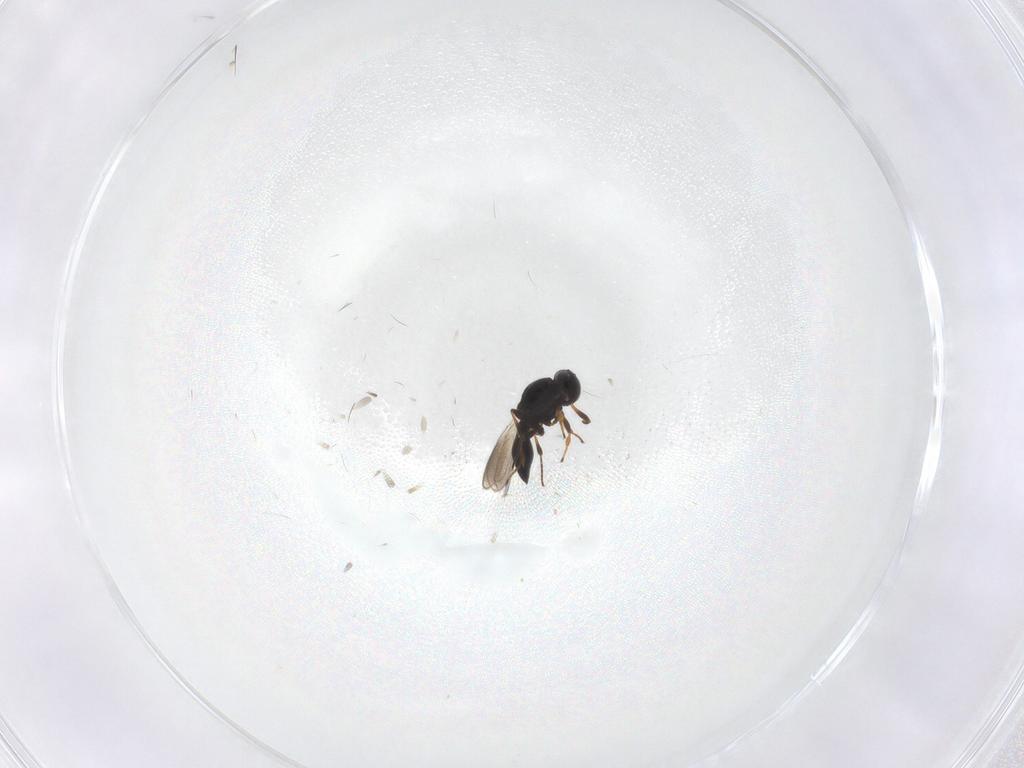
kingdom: Animalia
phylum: Arthropoda
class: Insecta
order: Hymenoptera
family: Platygastridae
